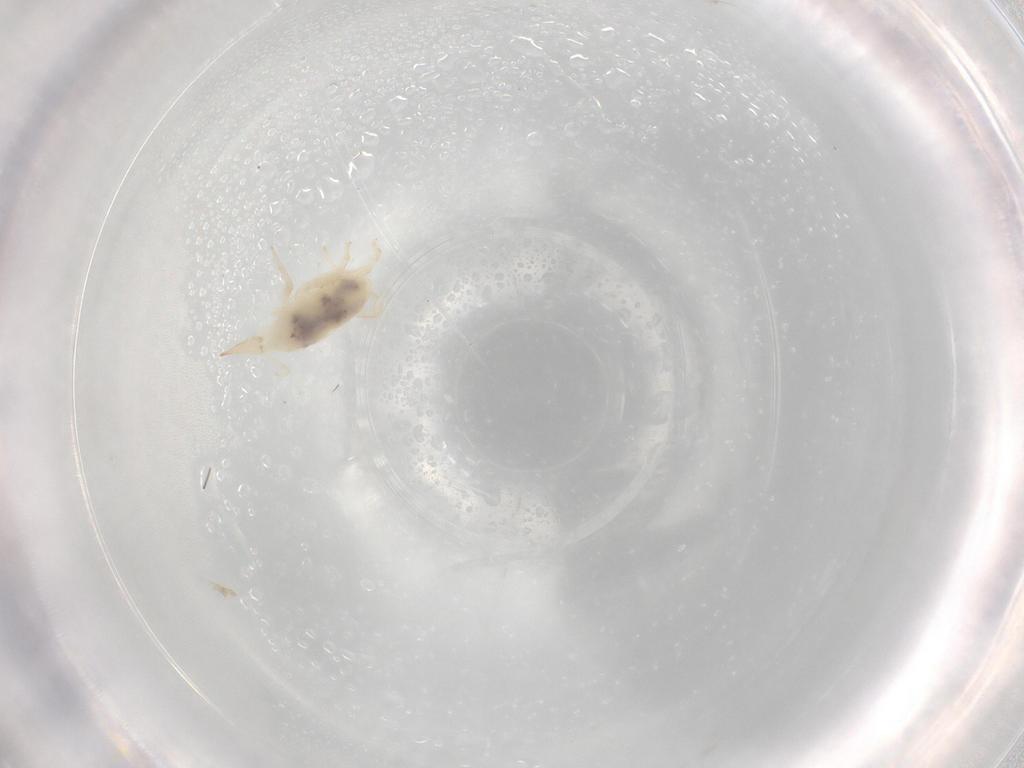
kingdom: Animalia
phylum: Arthropoda
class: Arachnida
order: Trombidiformes
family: Bdellidae
